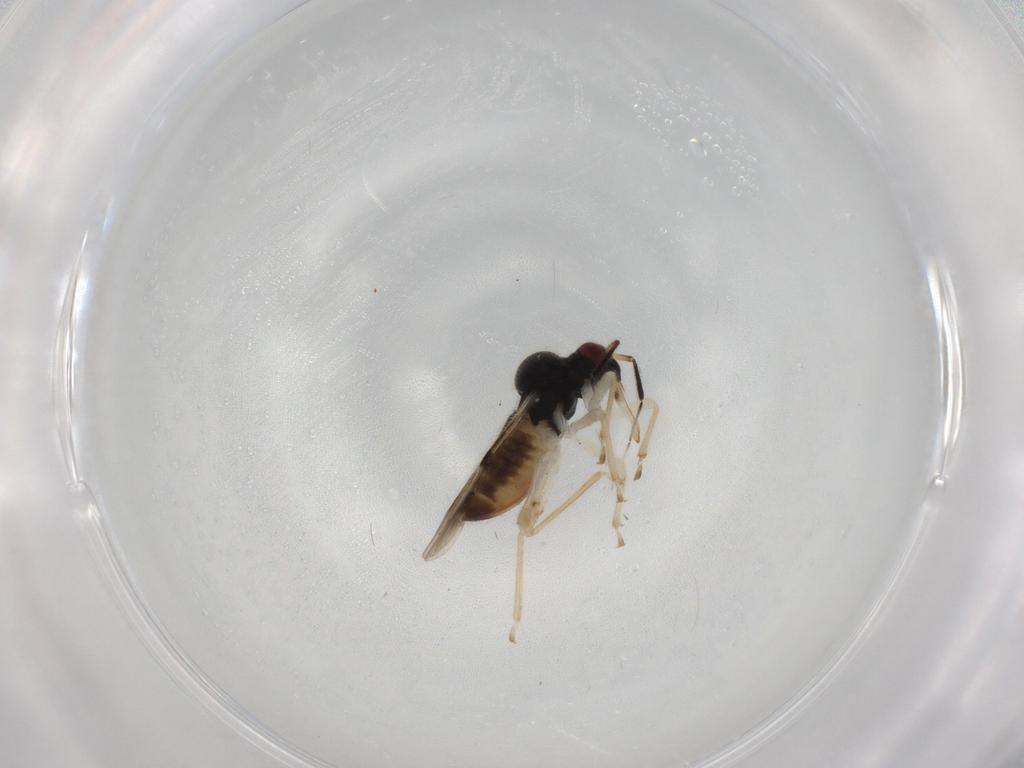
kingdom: Animalia
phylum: Arthropoda
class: Insecta
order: Hemiptera
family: Miridae
